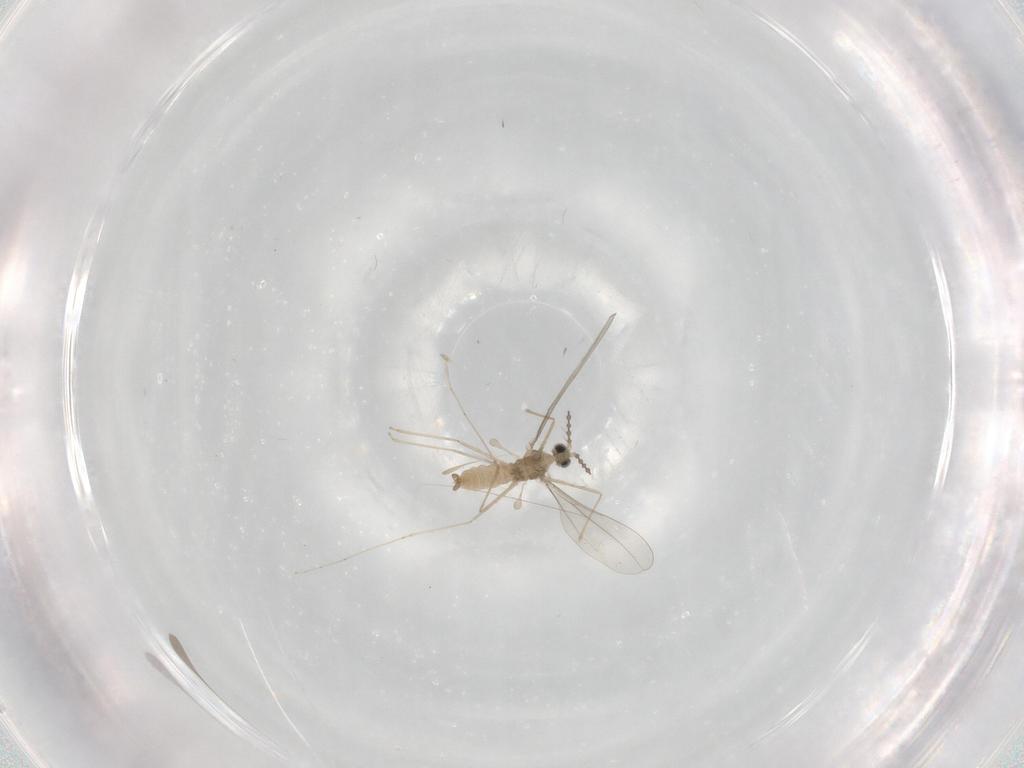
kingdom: Animalia
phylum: Arthropoda
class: Insecta
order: Diptera
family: Cecidomyiidae
